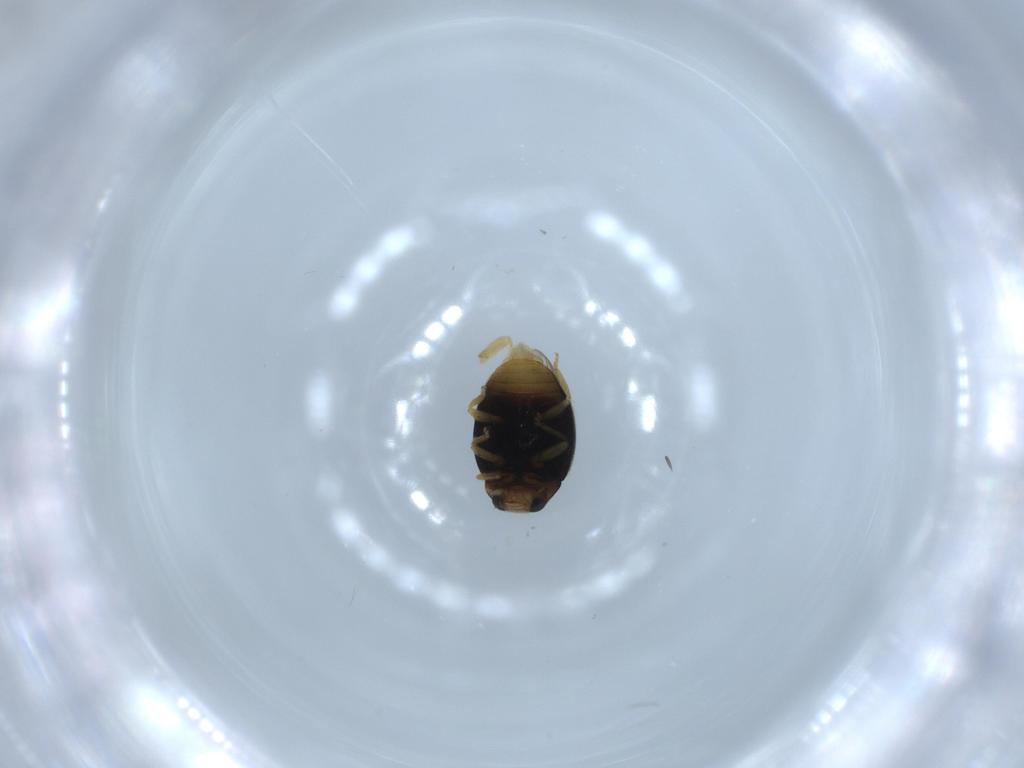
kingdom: Animalia
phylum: Arthropoda
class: Insecta
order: Coleoptera
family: Coccinellidae
